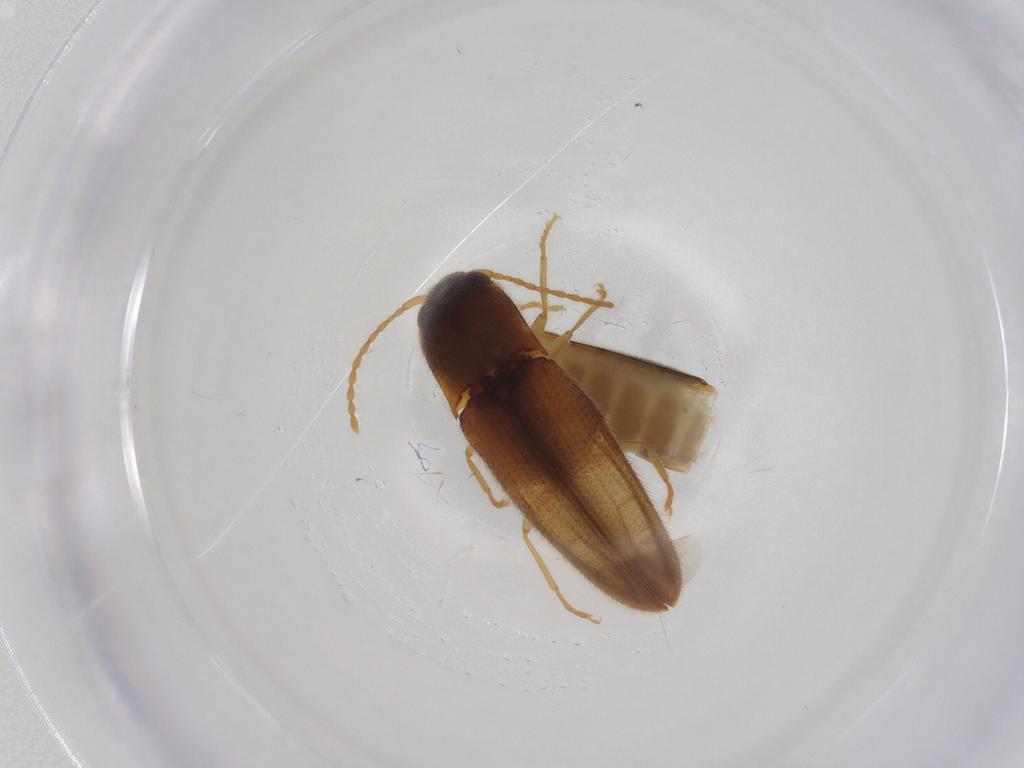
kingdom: Animalia
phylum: Arthropoda
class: Insecta
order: Coleoptera
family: Elateridae
